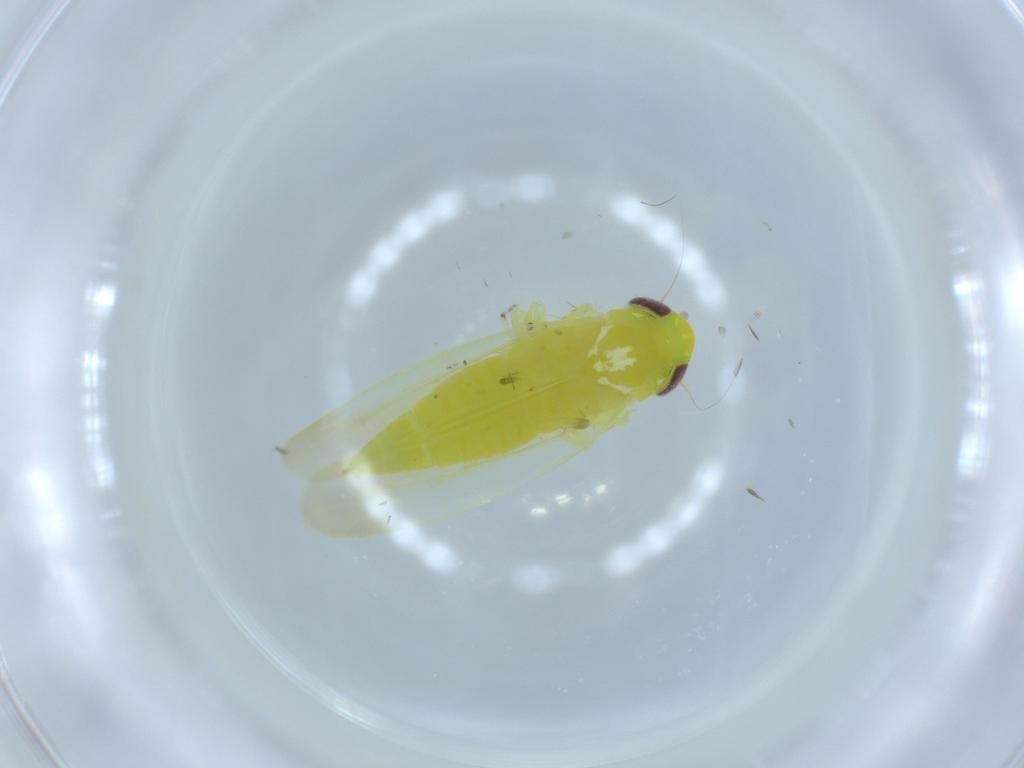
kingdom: Animalia
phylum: Arthropoda
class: Insecta
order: Hemiptera
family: Cicadellidae
